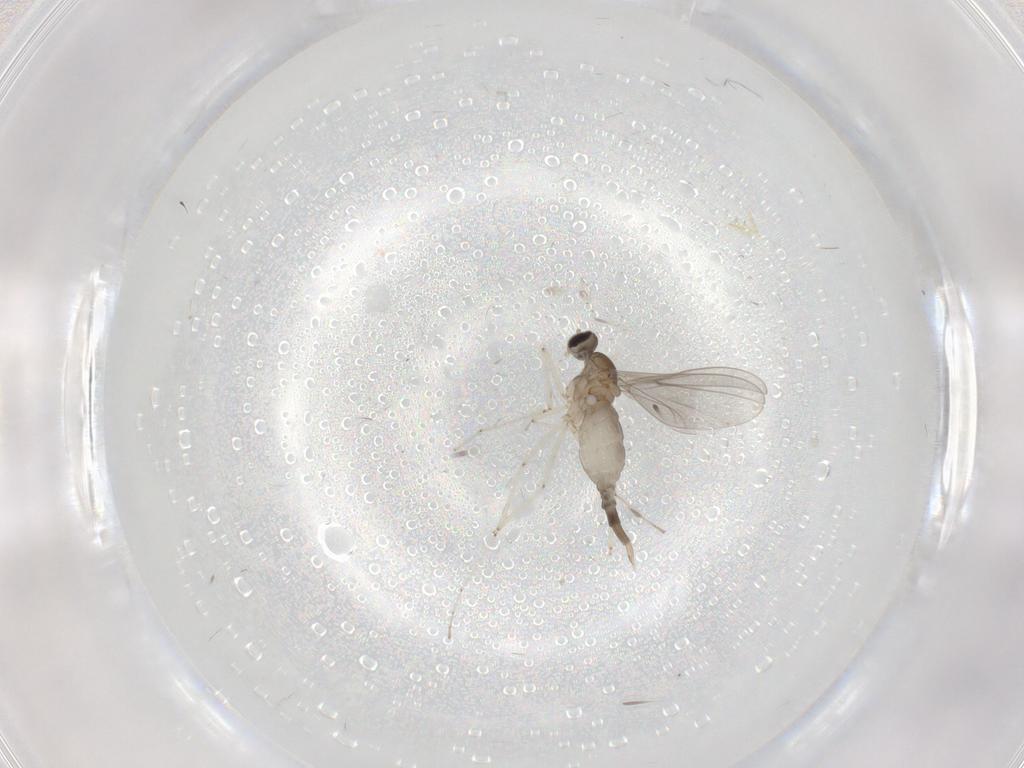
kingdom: Animalia
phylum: Arthropoda
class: Insecta
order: Diptera
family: Cecidomyiidae
